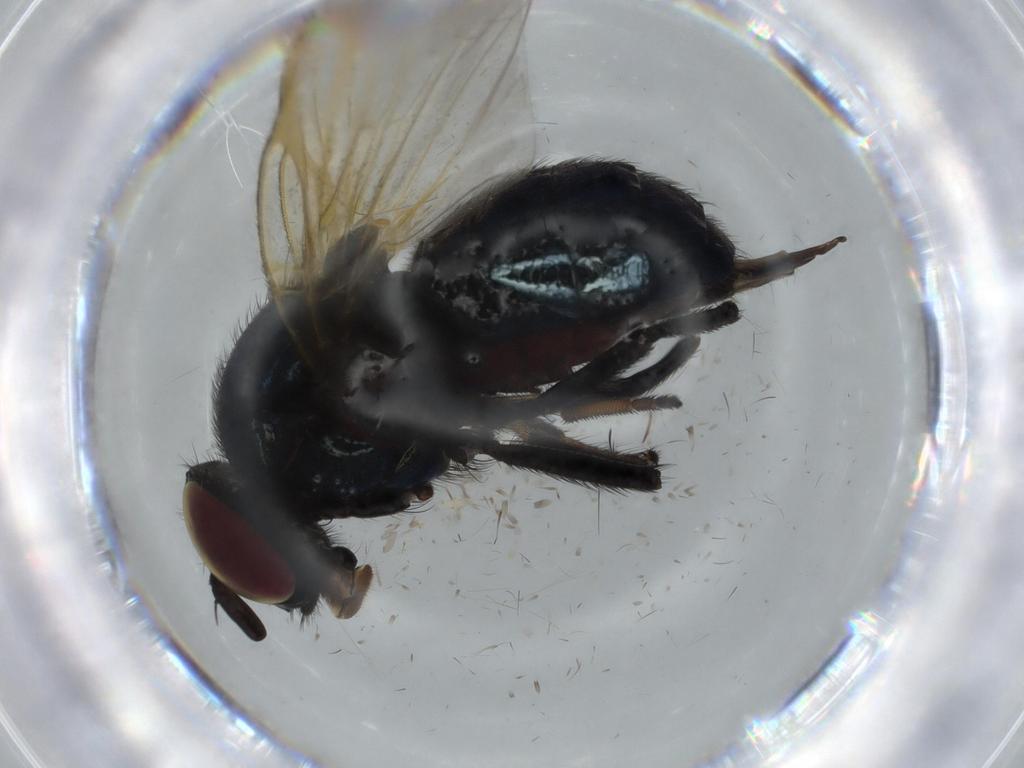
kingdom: Animalia
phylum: Arthropoda
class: Insecta
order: Diptera
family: Lonchaeidae
